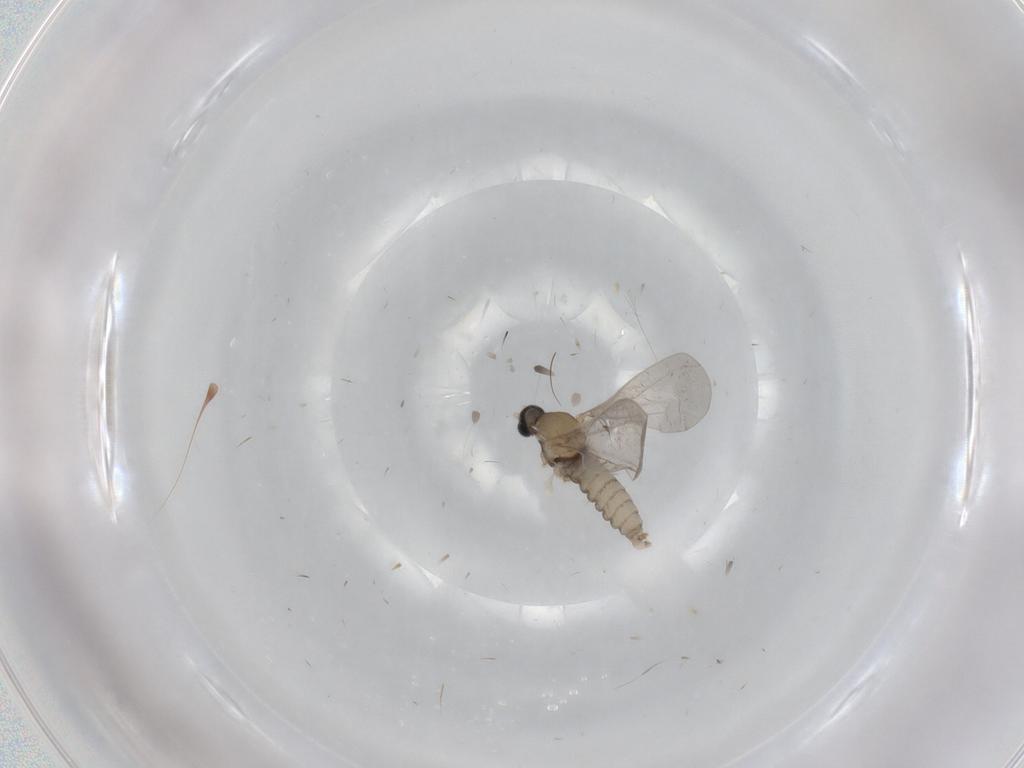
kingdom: Animalia
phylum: Arthropoda
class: Insecta
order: Diptera
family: Cecidomyiidae
